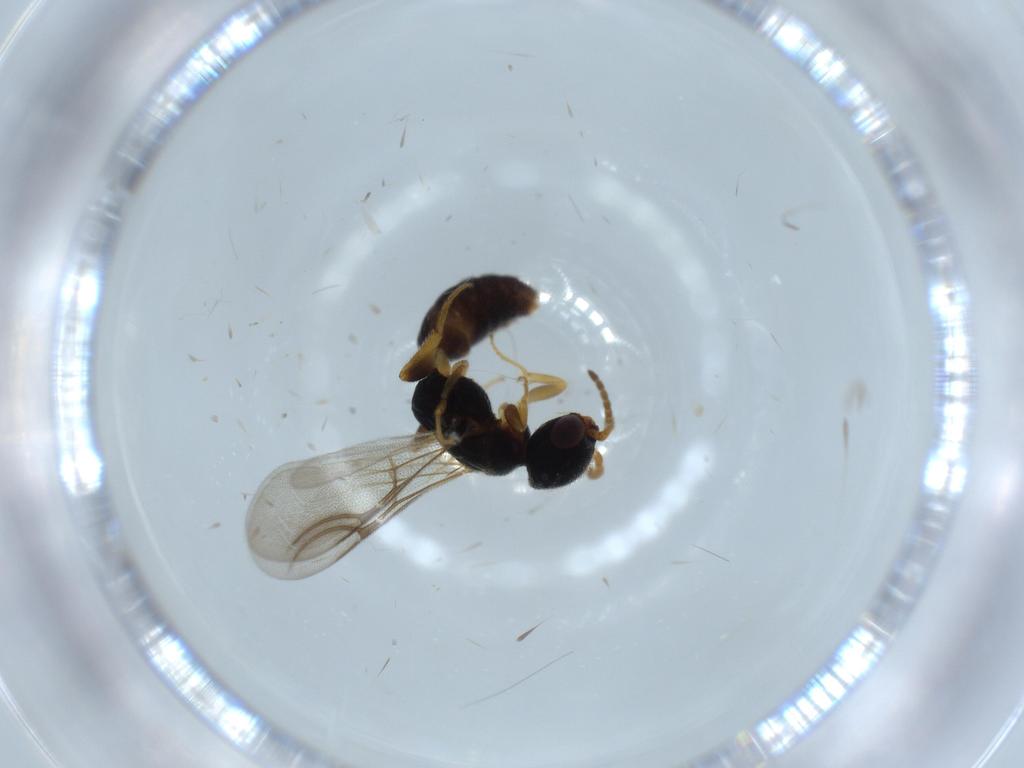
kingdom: Animalia
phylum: Arthropoda
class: Insecta
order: Hymenoptera
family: Bethylidae
